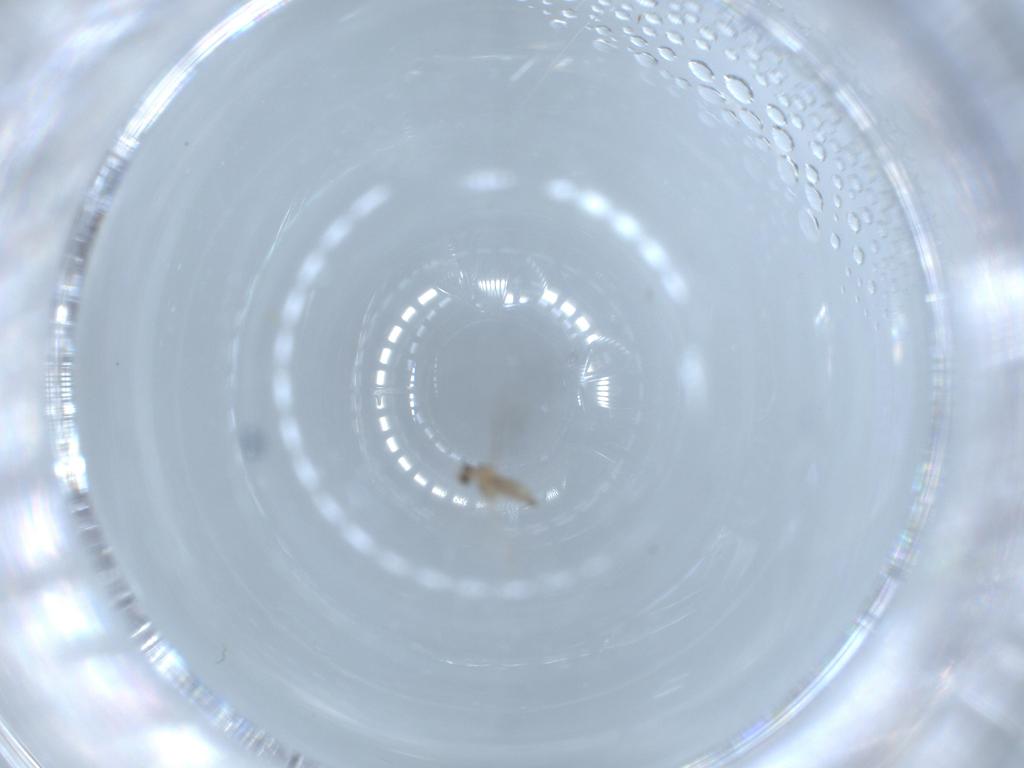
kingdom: Animalia
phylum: Arthropoda
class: Insecta
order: Diptera
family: Cecidomyiidae
